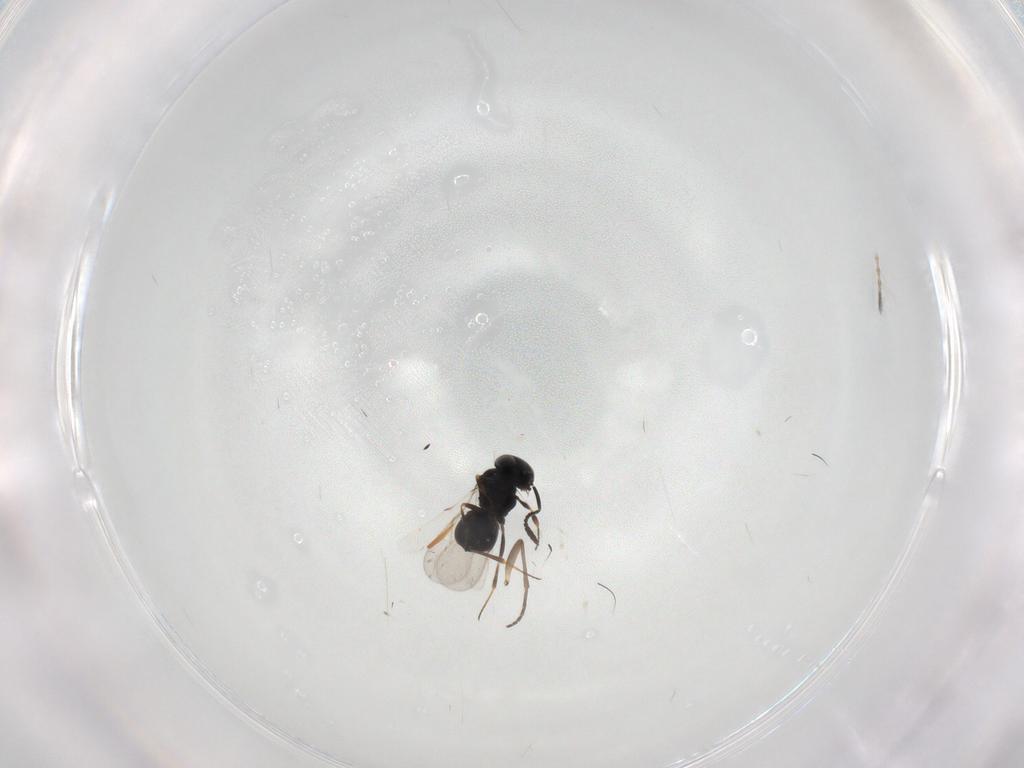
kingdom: Animalia
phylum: Arthropoda
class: Insecta
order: Hymenoptera
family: Scelionidae
